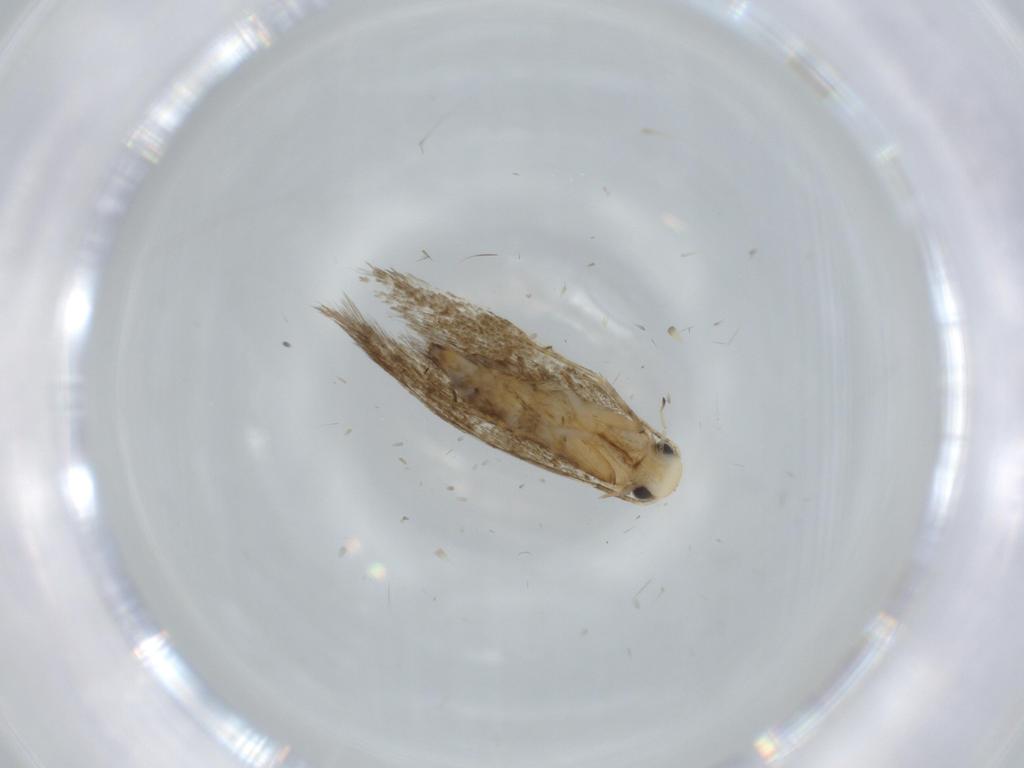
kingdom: Animalia
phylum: Arthropoda
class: Insecta
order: Lepidoptera
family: Tineidae
